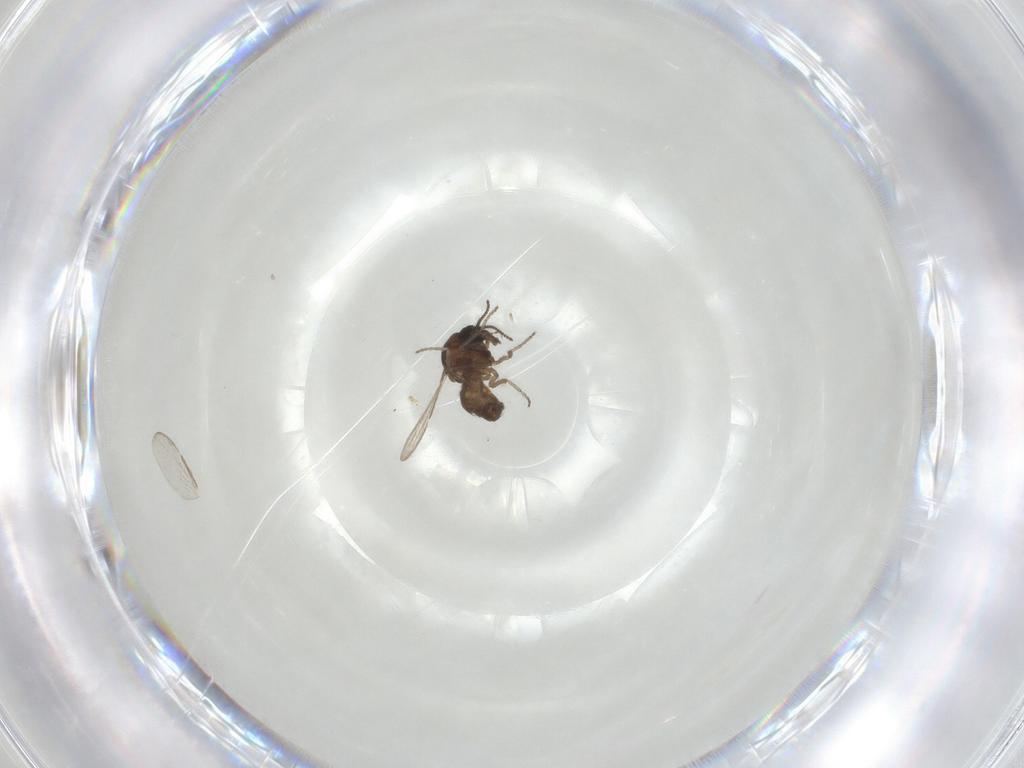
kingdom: Animalia
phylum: Arthropoda
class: Insecta
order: Diptera
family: Ceratopogonidae
